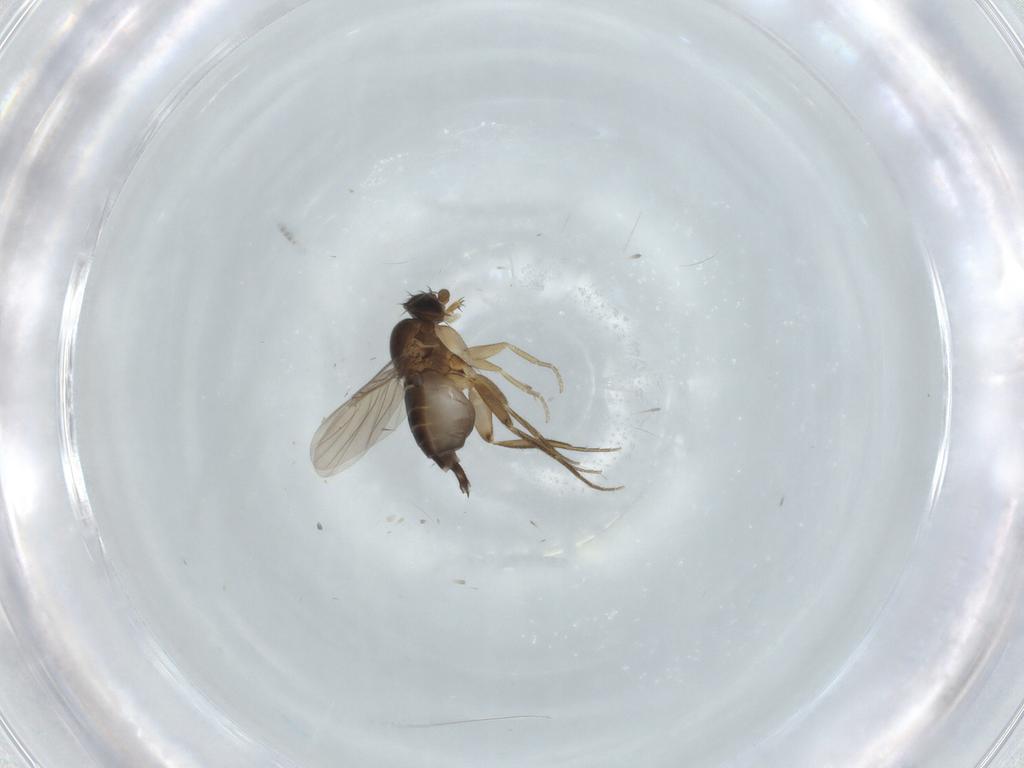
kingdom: Animalia
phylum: Arthropoda
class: Insecta
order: Diptera
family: Phoridae
